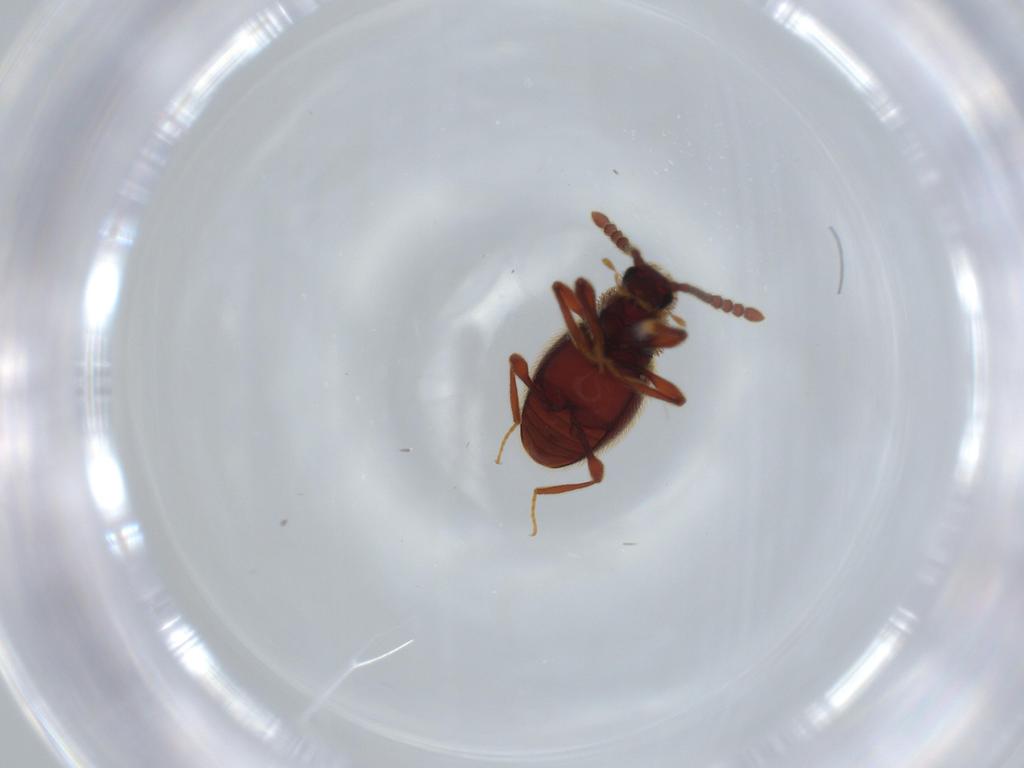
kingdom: Animalia
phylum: Arthropoda
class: Insecta
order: Coleoptera
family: Staphylinidae
